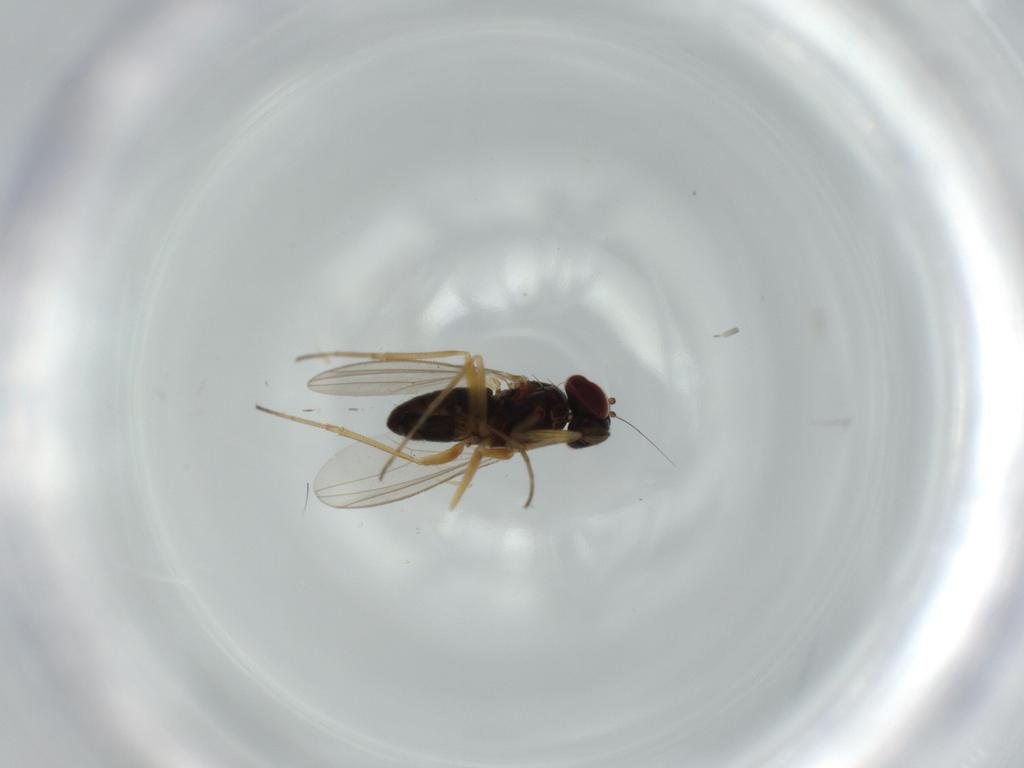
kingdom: Animalia
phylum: Arthropoda
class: Insecta
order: Diptera
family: Dolichopodidae
